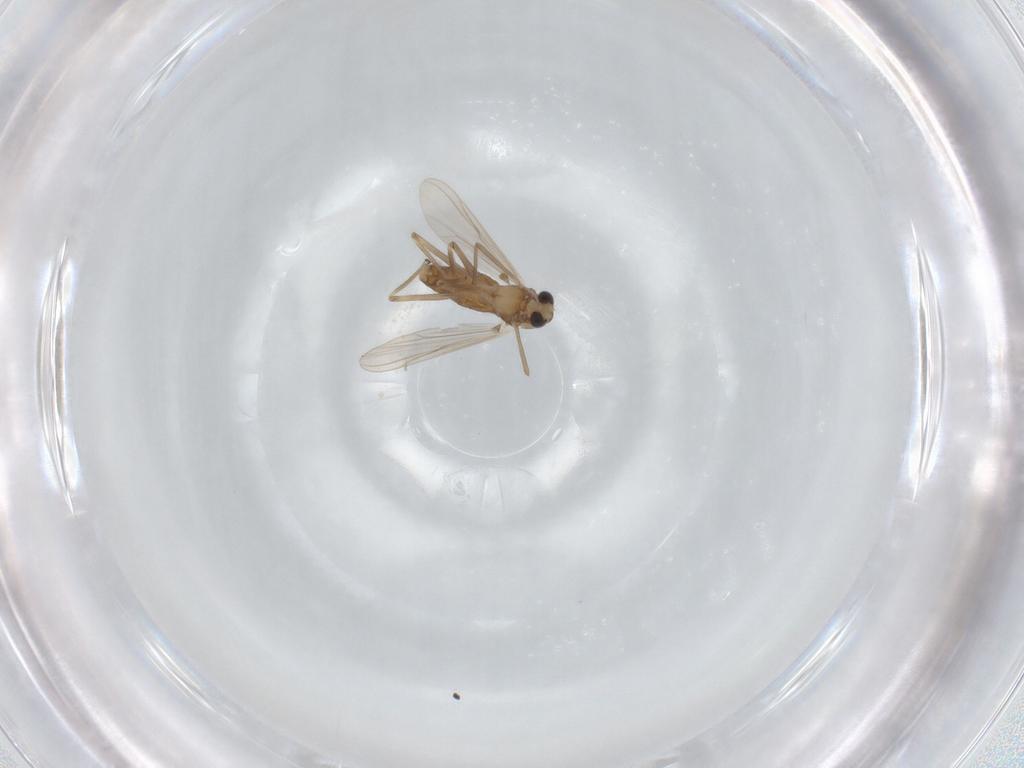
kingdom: Animalia
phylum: Arthropoda
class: Insecta
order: Diptera
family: Chironomidae
